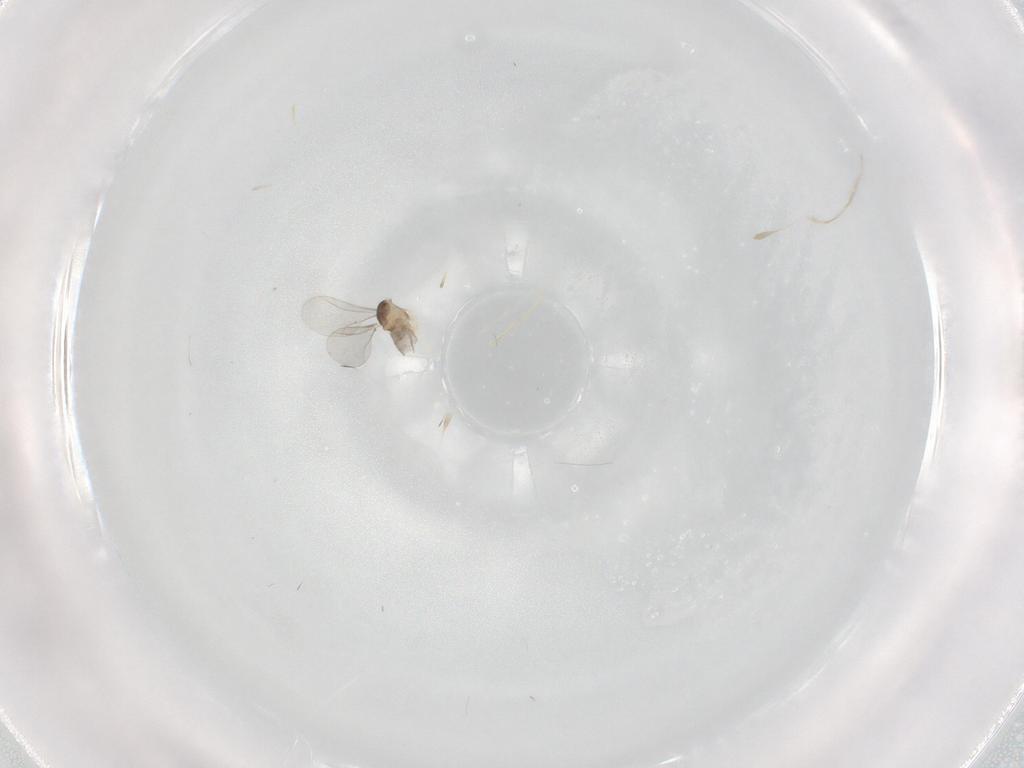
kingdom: Animalia
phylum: Arthropoda
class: Insecta
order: Diptera
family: Cecidomyiidae
